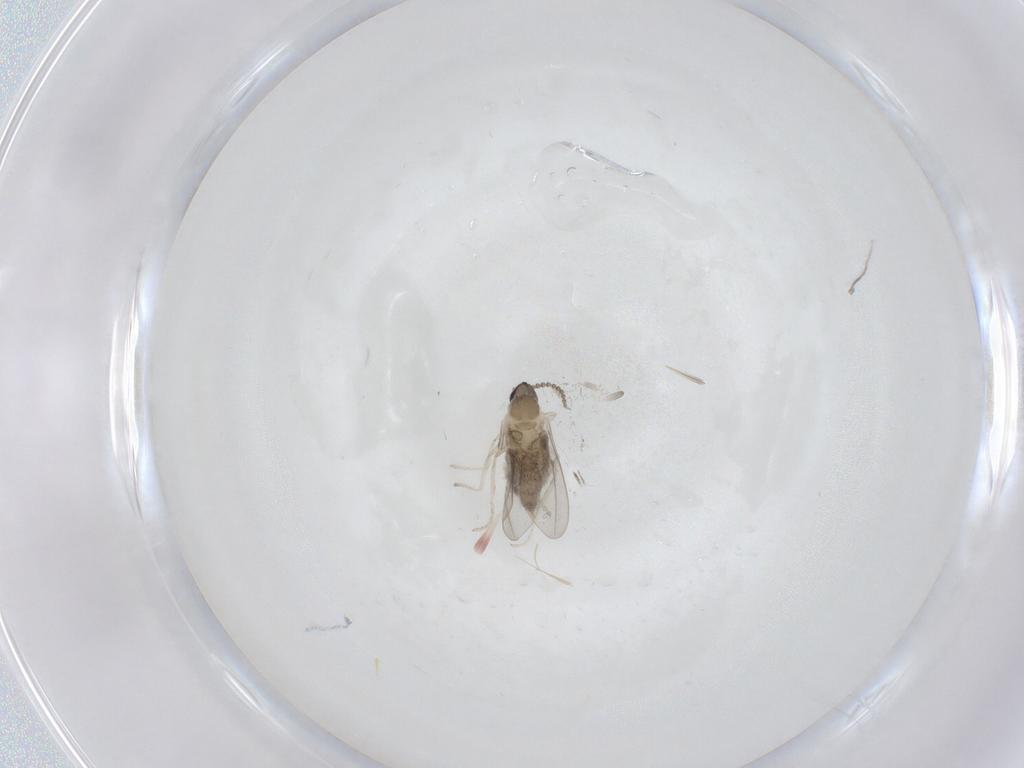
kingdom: Animalia
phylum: Arthropoda
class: Insecta
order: Diptera
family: Cecidomyiidae
